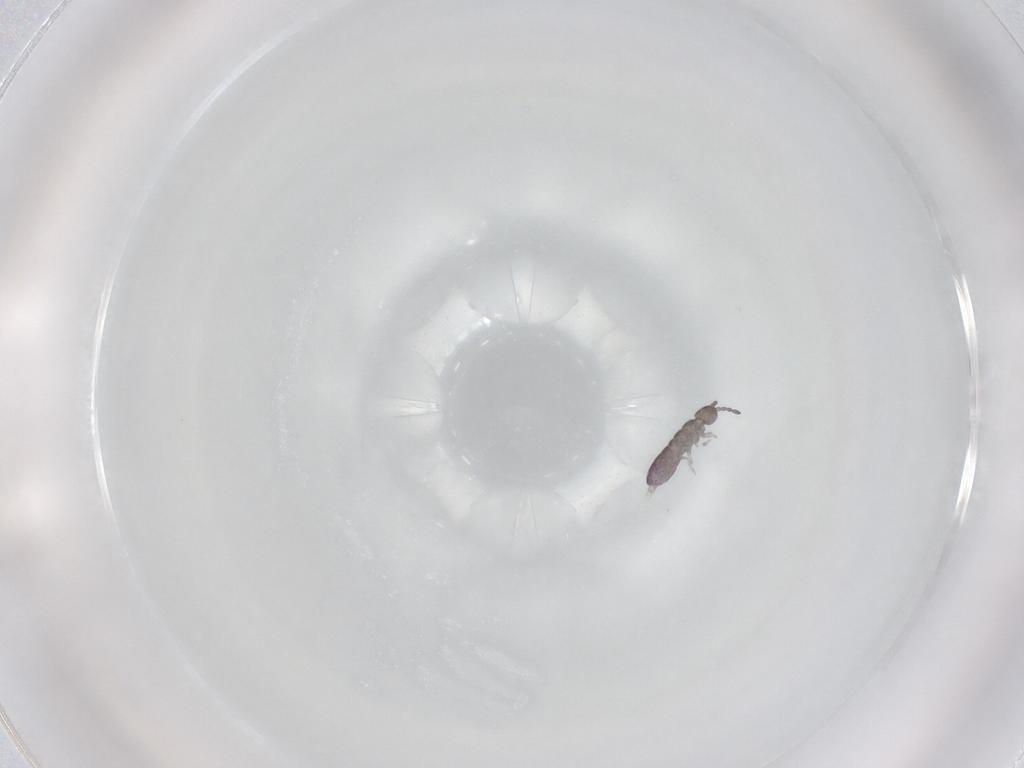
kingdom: Animalia
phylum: Arthropoda
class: Collembola
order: Entomobryomorpha
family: Isotomidae
